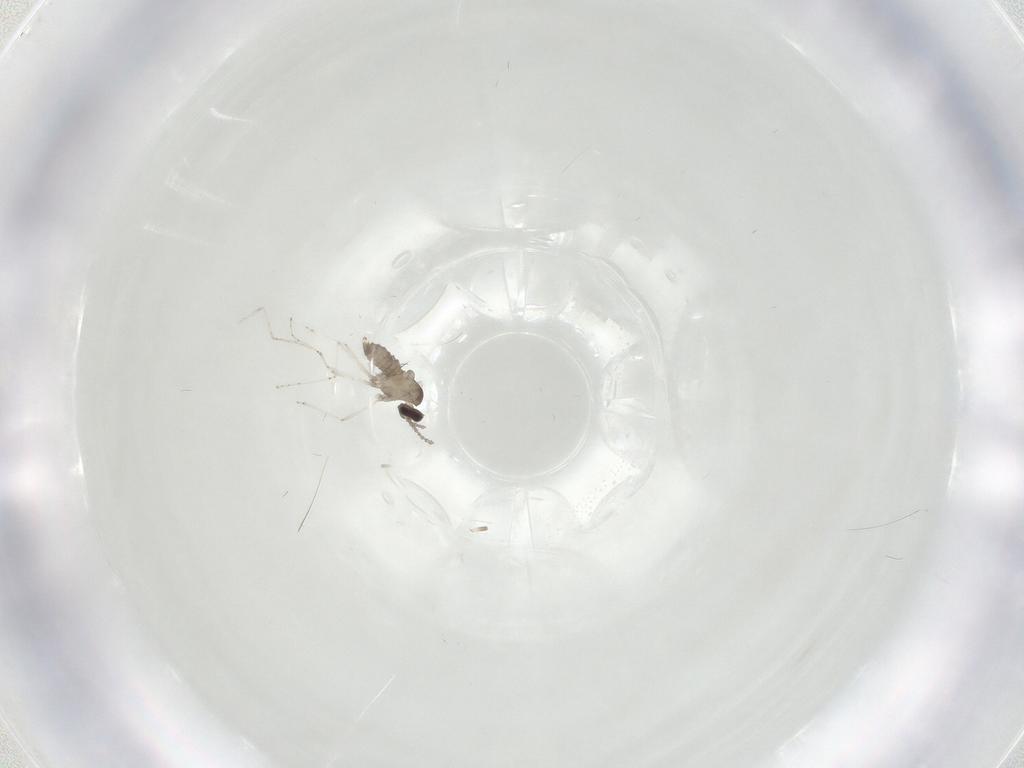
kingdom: Animalia
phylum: Arthropoda
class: Insecta
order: Diptera
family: Cecidomyiidae
